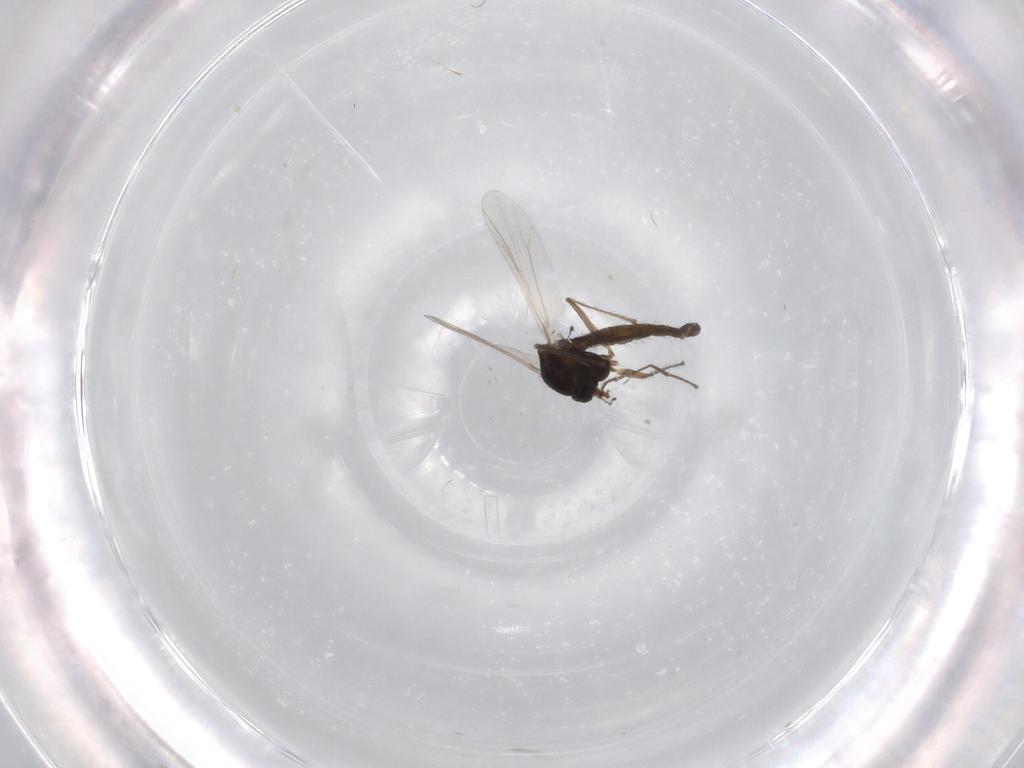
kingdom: Animalia
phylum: Arthropoda
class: Insecta
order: Diptera
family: Chironomidae
